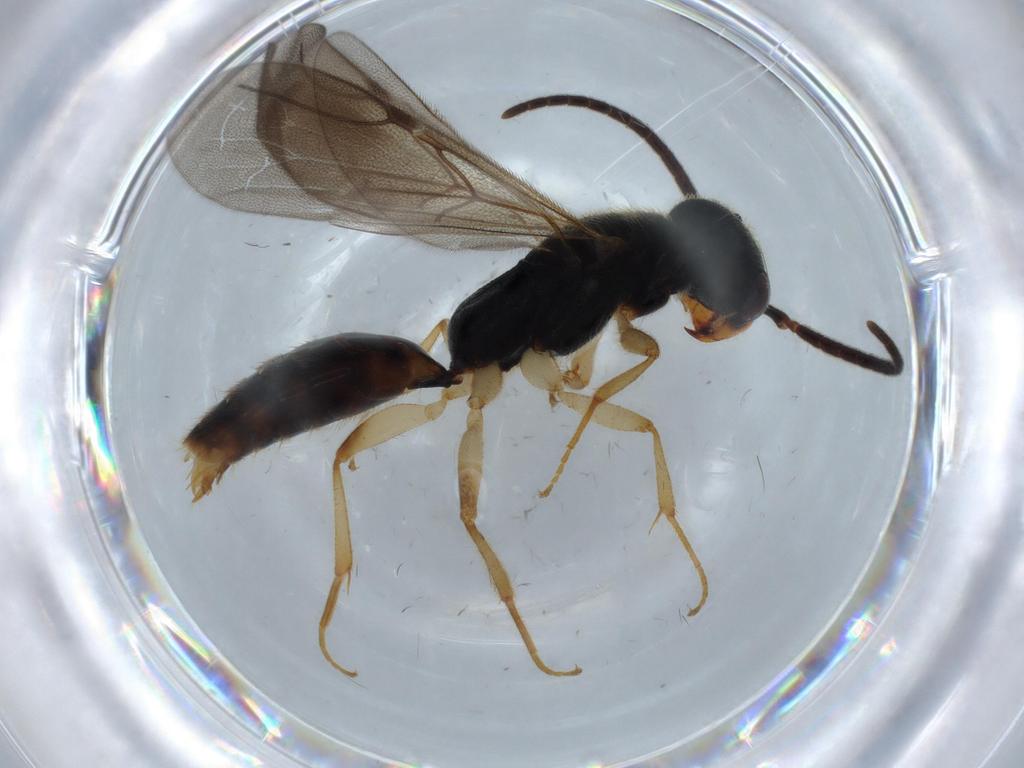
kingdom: Animalia
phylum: Arthropoda
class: Insecta
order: Hymenoptera
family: Bethylidae
